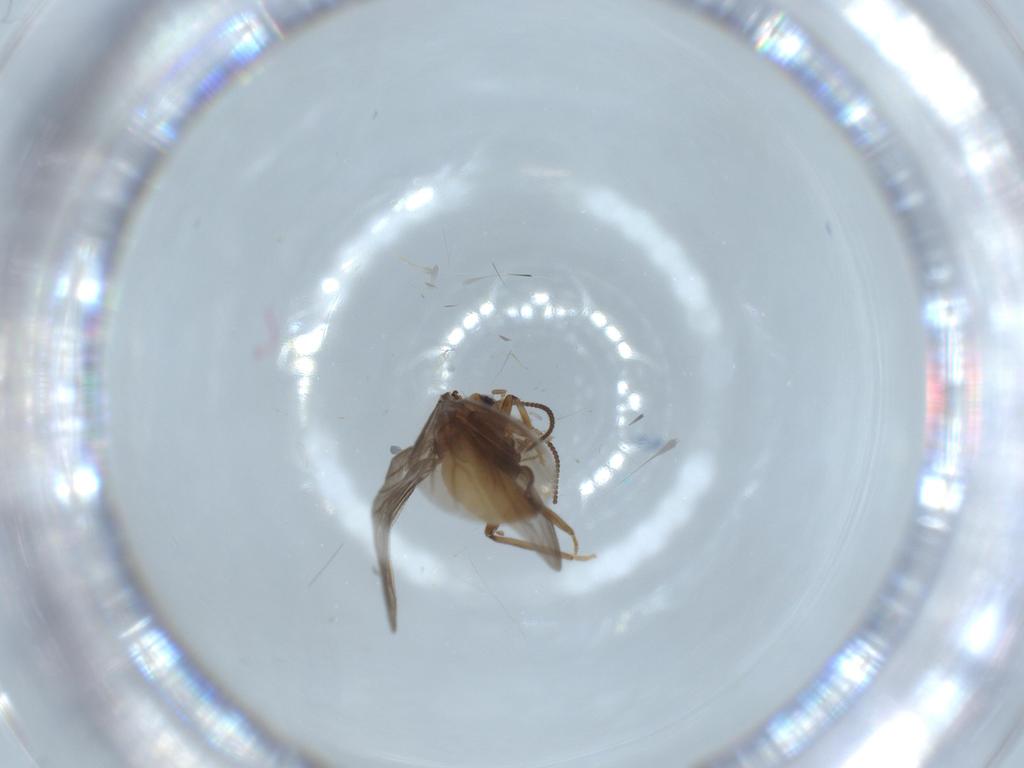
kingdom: Animalia
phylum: Arthropoda
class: Insecta
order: Neuroptera
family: Coniopterygidae
